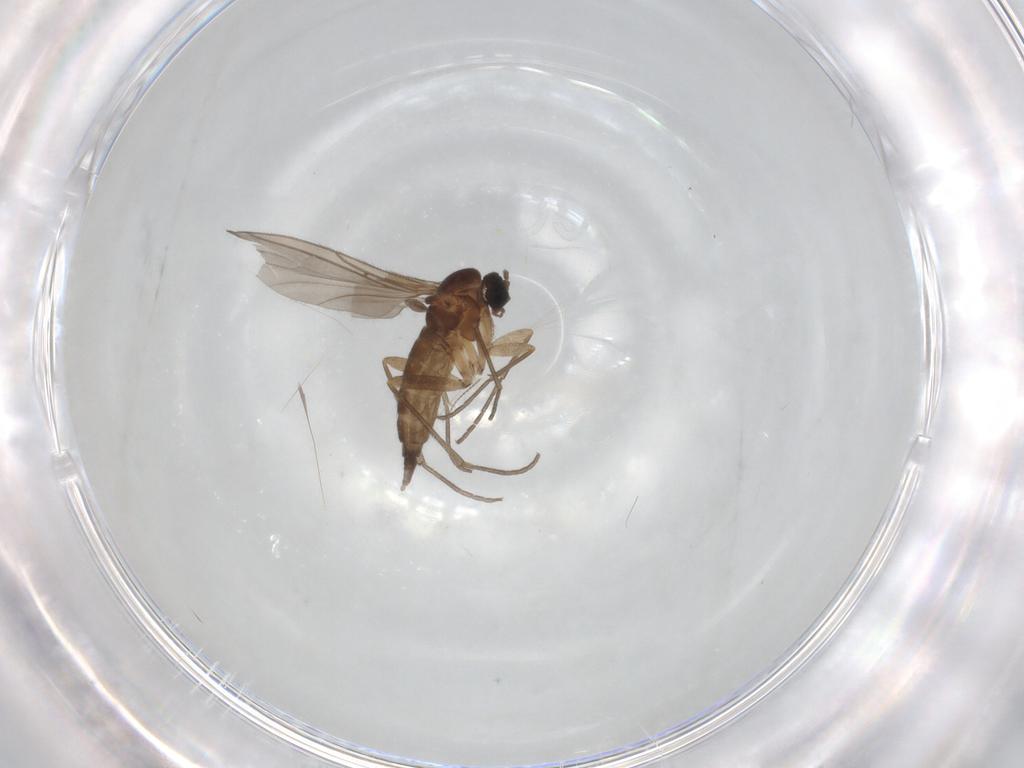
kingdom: Animalia
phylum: Arthropoda
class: Insecta
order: Diptera
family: Sciaridae
